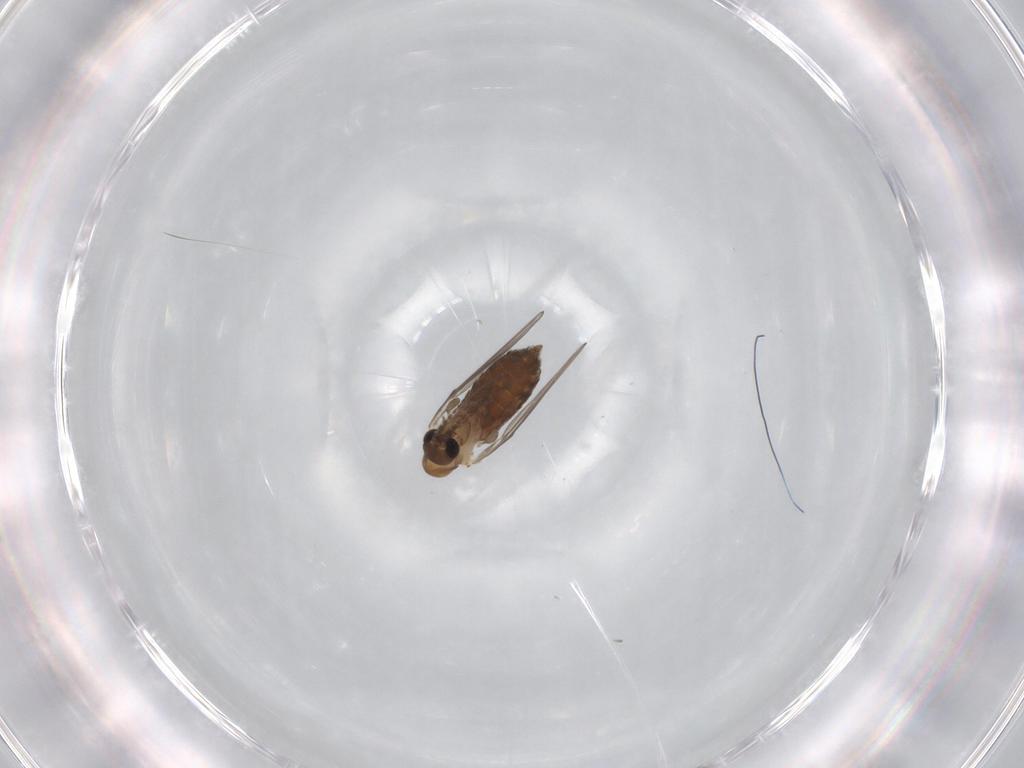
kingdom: Animalia
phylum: Arthropoda
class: Insecta
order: Diptera
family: Psychodidae
